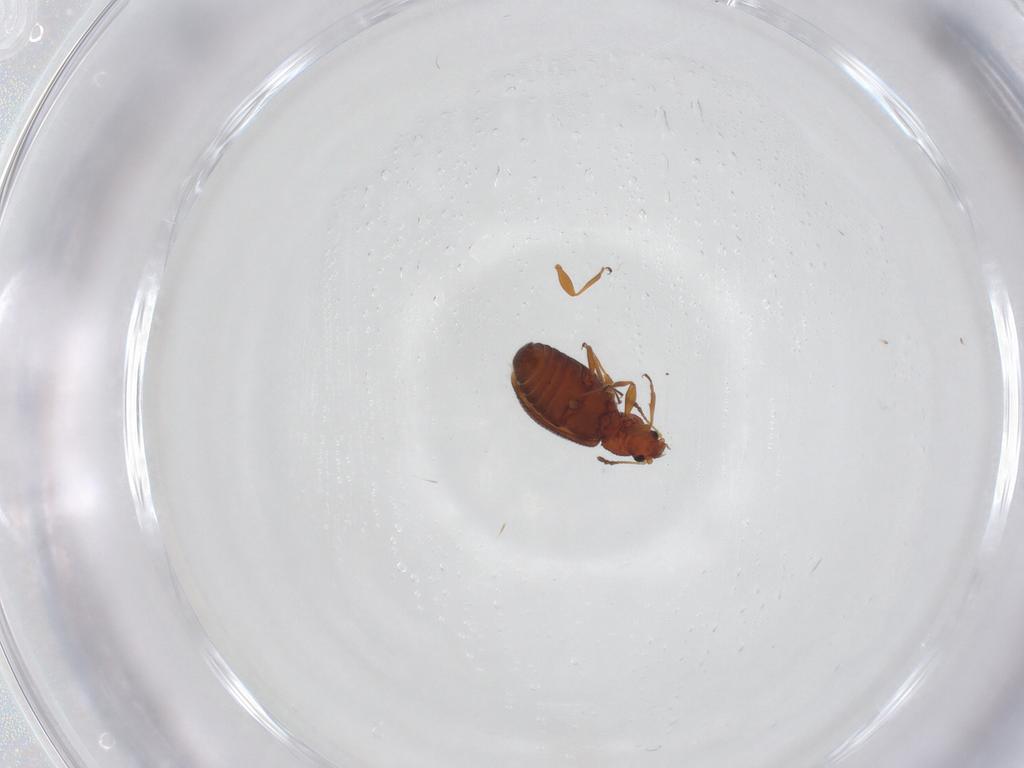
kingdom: Animalia
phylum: Arthropoda
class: Insecta
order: Coleoptera
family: Latridiidae
